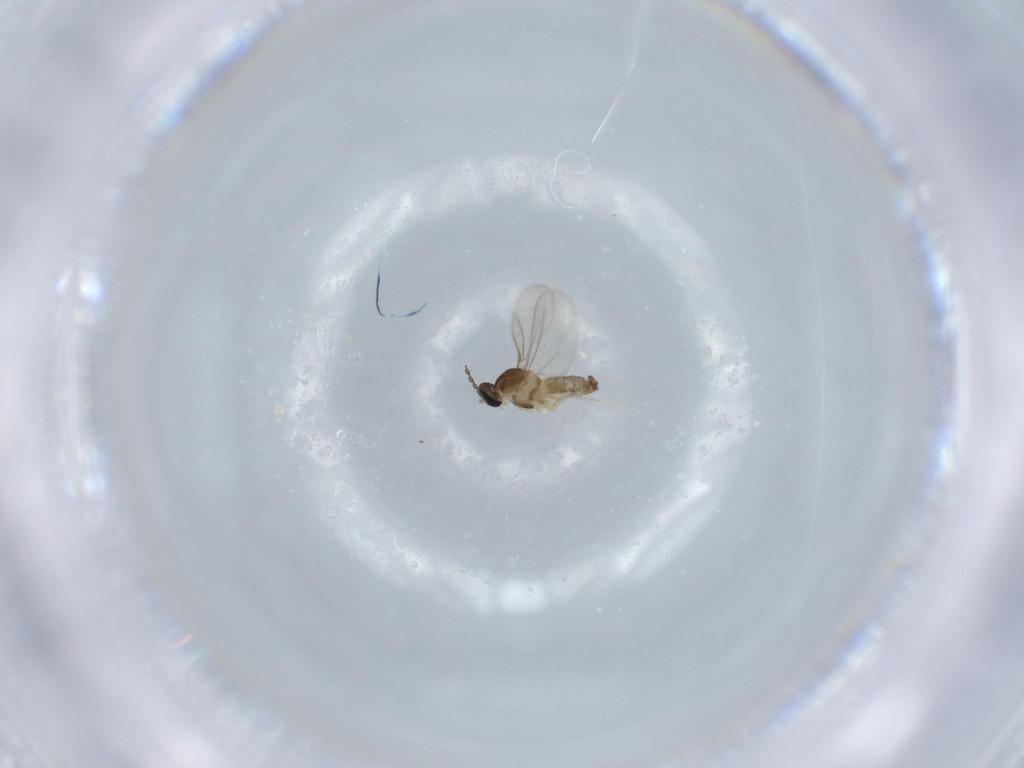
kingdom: Animalia
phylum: Arthropoda
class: Insecta
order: Diptera
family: Cecidomyiidae
